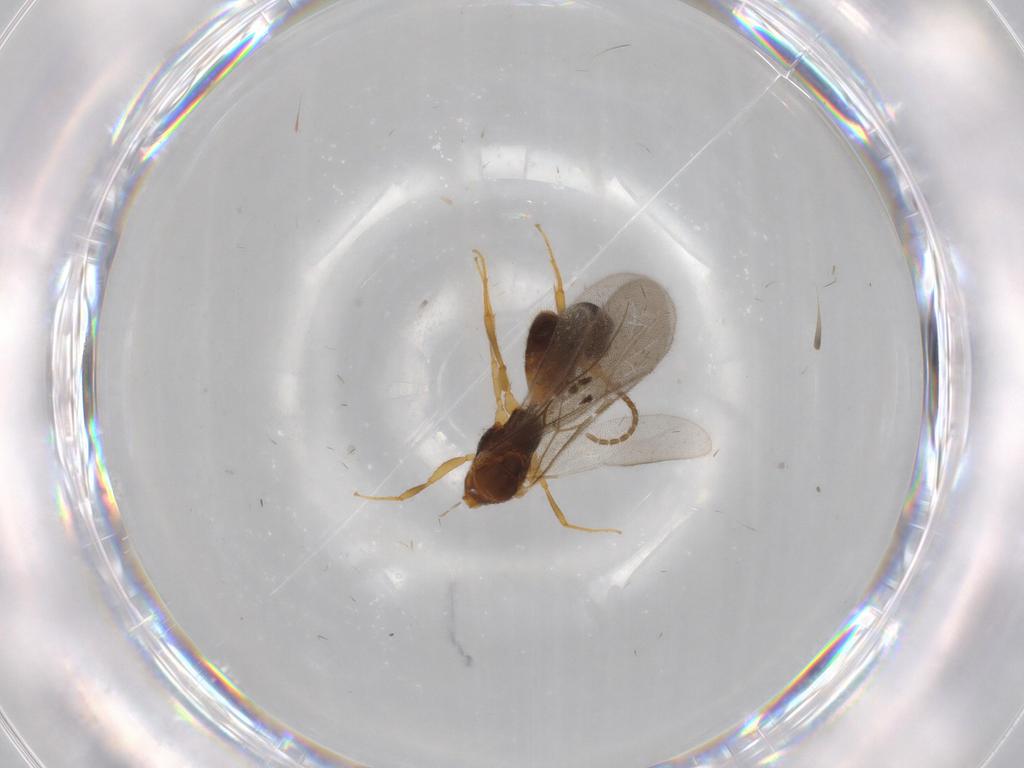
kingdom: Animalia
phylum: Arthropoda
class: Insecta
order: Hymenoptera
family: Bethylidae
